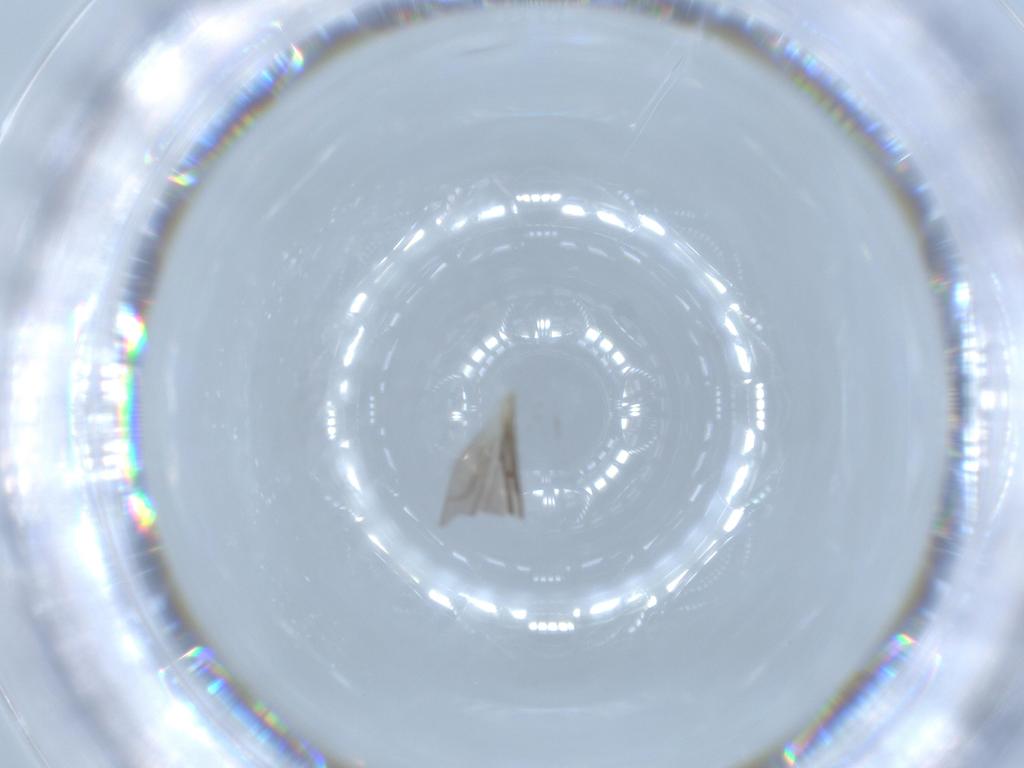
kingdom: Animalia
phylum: Arthropoda
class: Insecta
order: Diptera
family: Sciaridae
